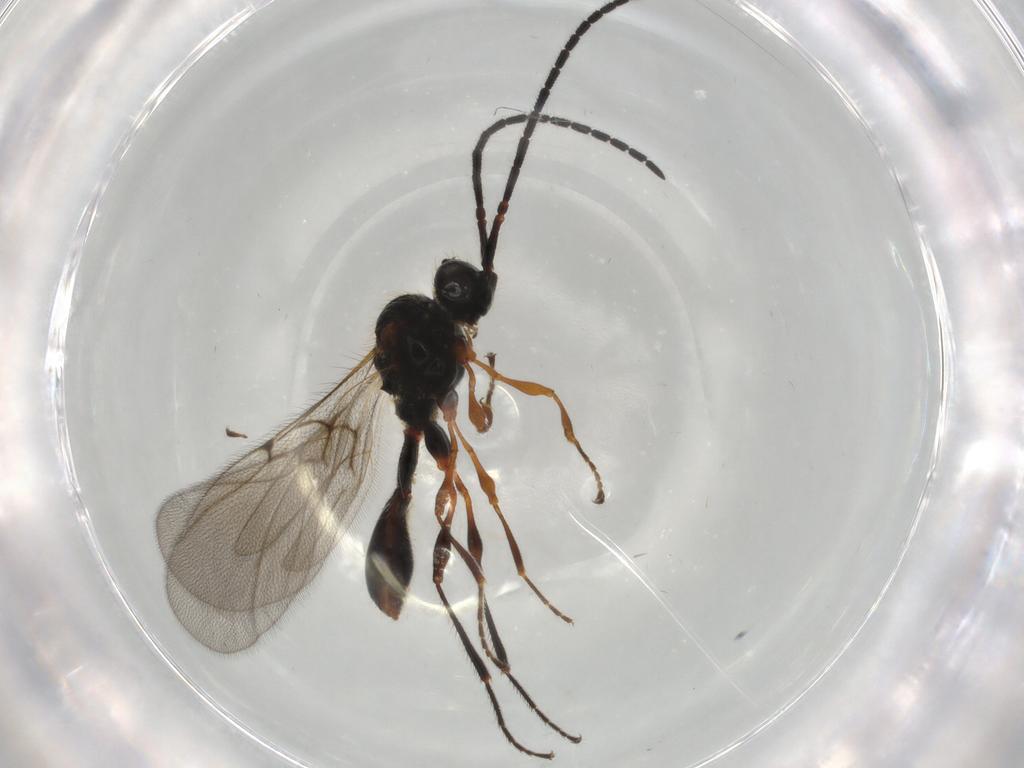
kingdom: Animalia
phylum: Arthropoda
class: Insecta
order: Hymenoptera
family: Diapriidae
